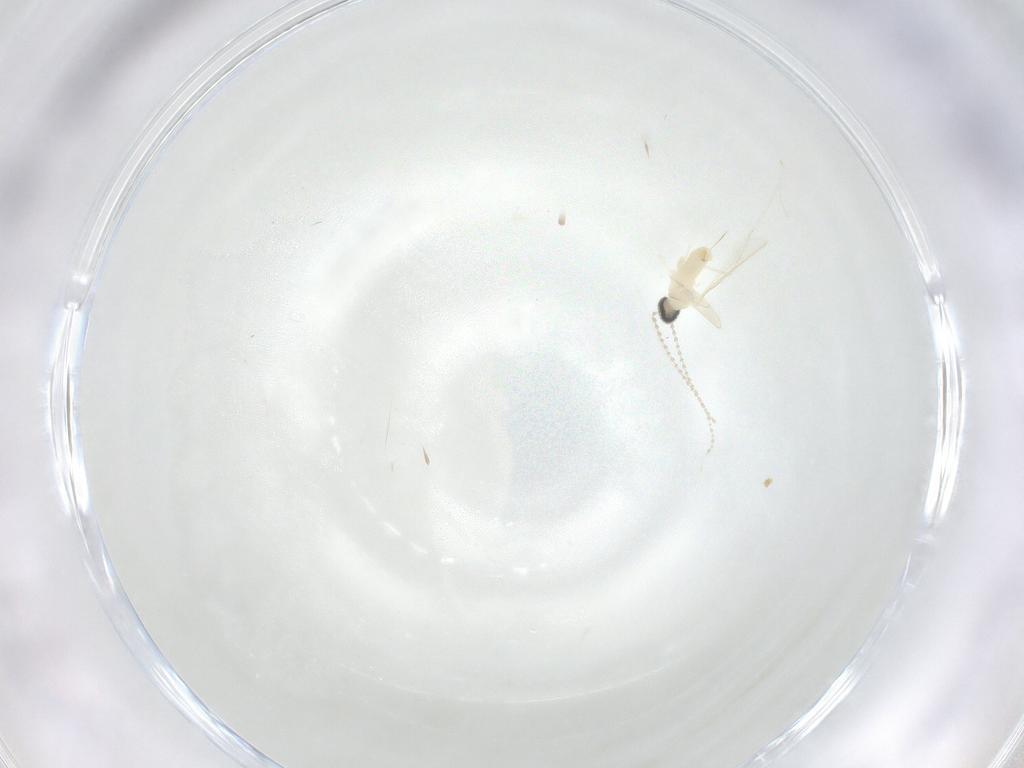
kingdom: Animalia
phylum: Arthropoda
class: Insecta
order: Diptera
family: Cecidomyiidae
